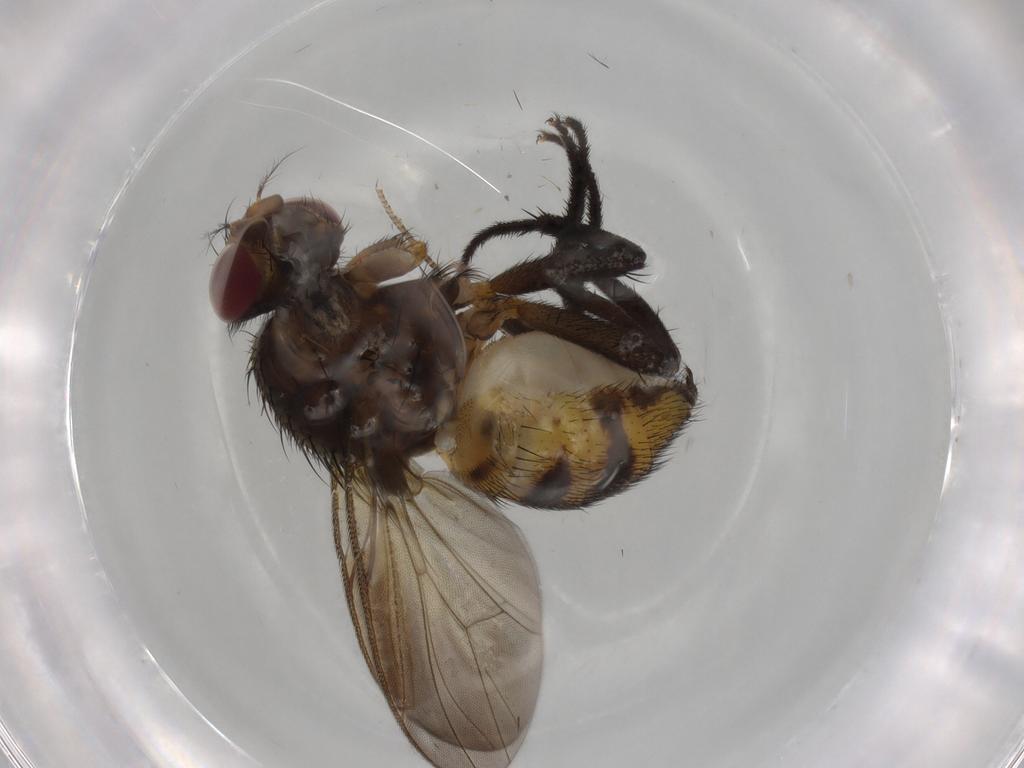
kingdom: Animalia
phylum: Arthropoda
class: Insecta
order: Diptera
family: Anthomyiidae
